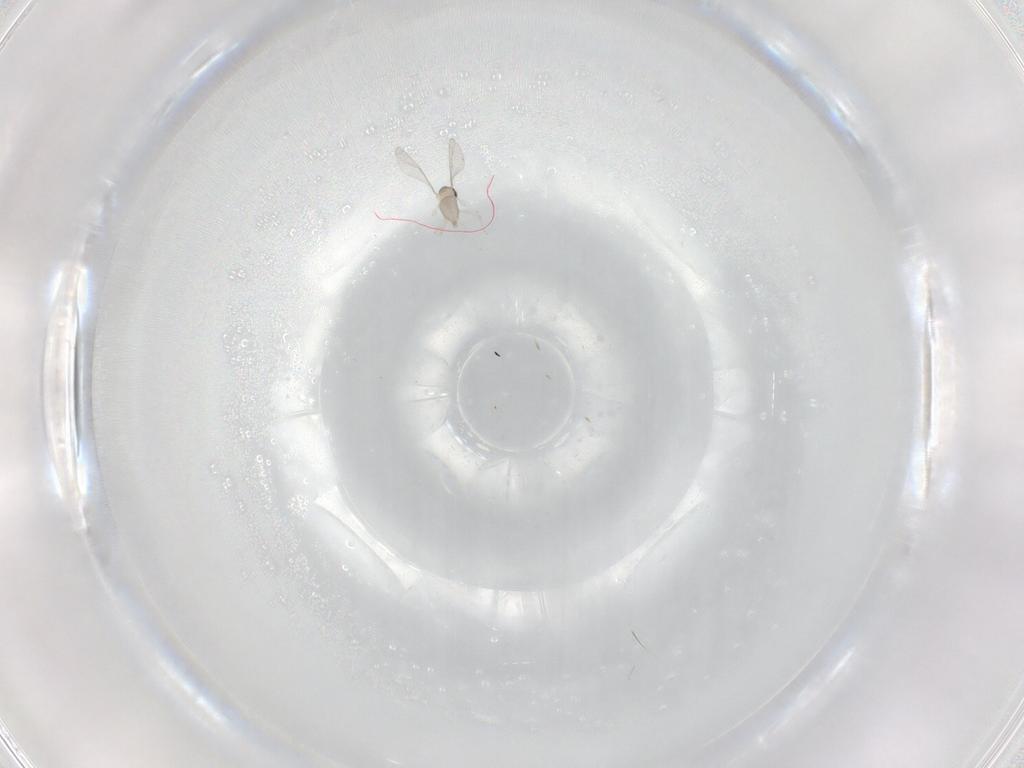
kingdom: Animalia
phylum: Arthropoda
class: Insecta
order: Diptera
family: Cecidomyiidae
